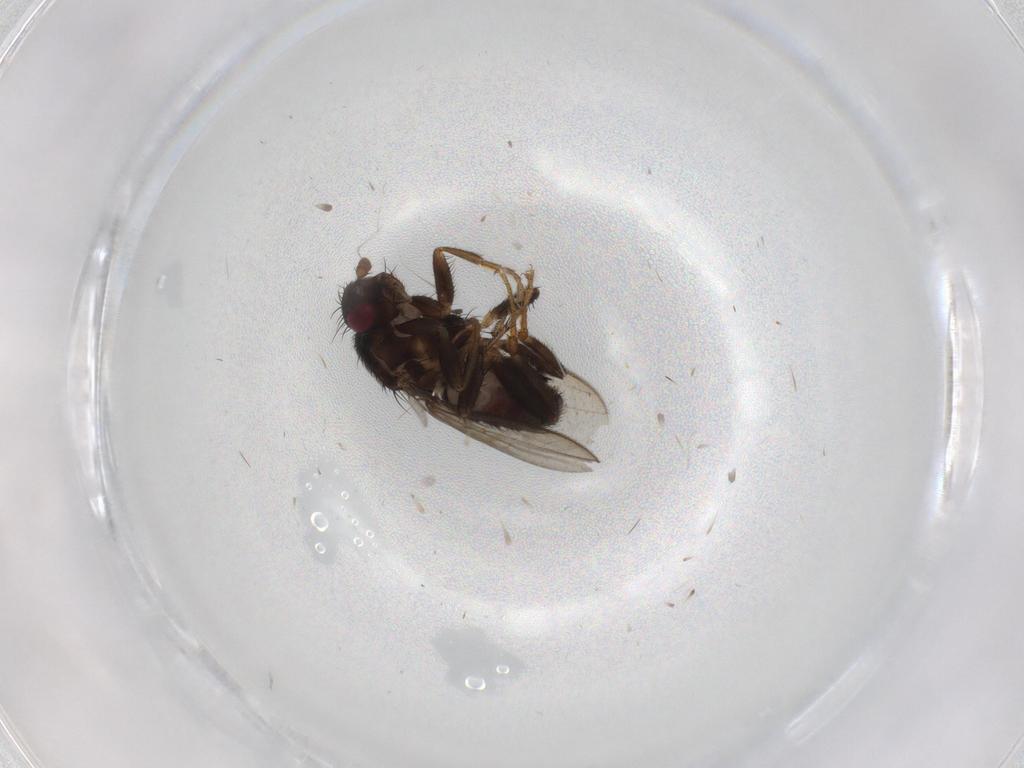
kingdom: Animalia
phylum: Arthropoda
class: Insecta
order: Diptera
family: Sphaeroceridae
